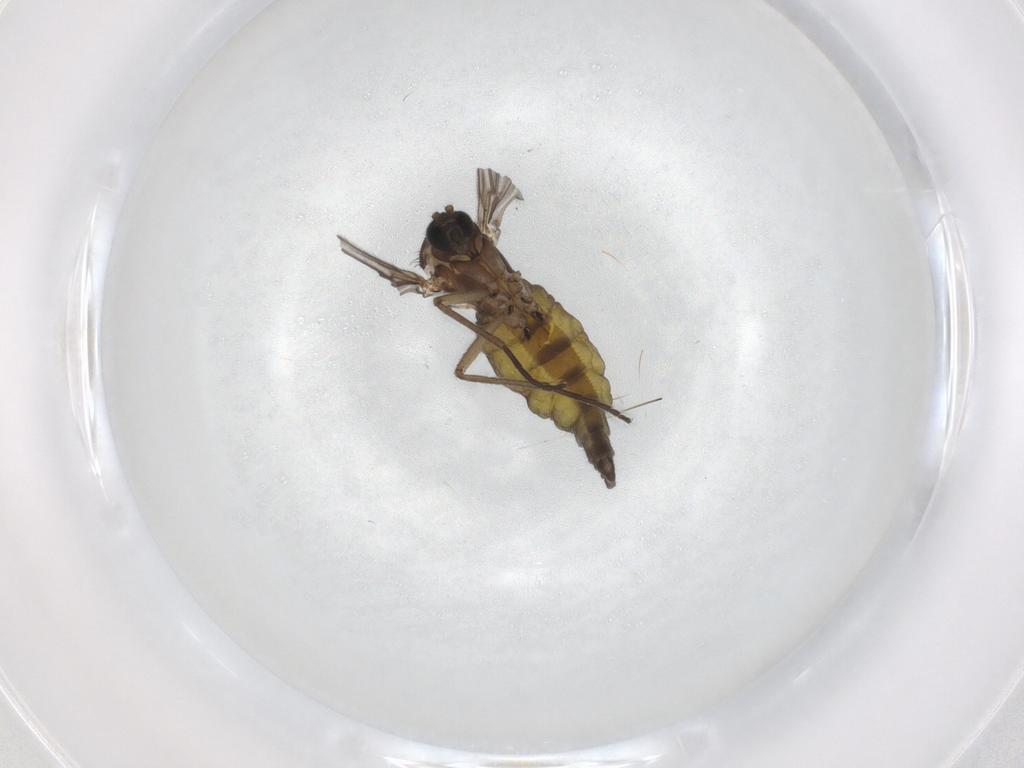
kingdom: Animalia
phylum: Arthropoda
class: Insecta
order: Diptera
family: Sciaridae
